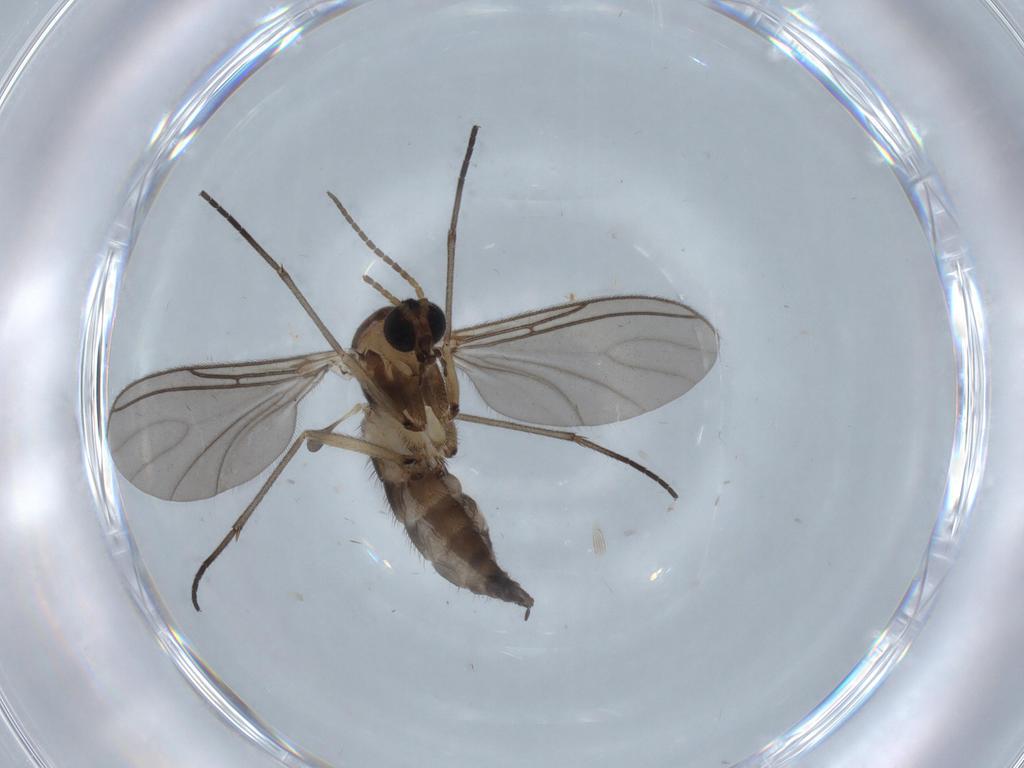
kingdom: Animalia
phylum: Arthropoda
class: Insecta
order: Diptera
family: Sciaridae
